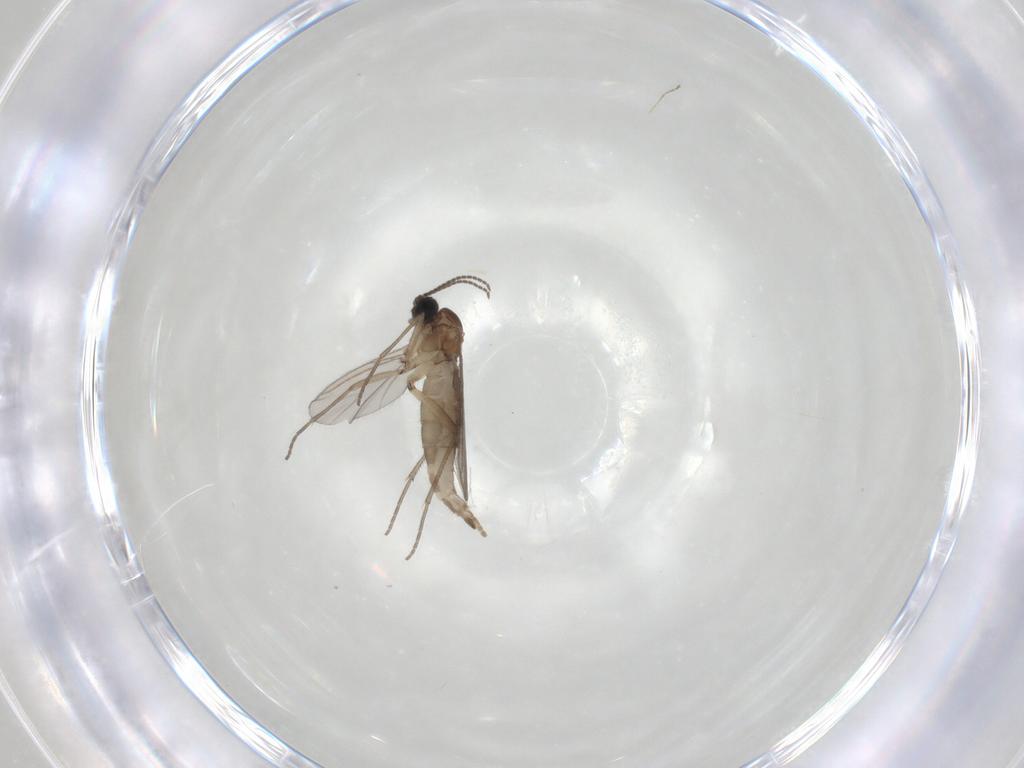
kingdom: Animalia
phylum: Arthropoda
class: Insecta
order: Diptera
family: Sciaridae
